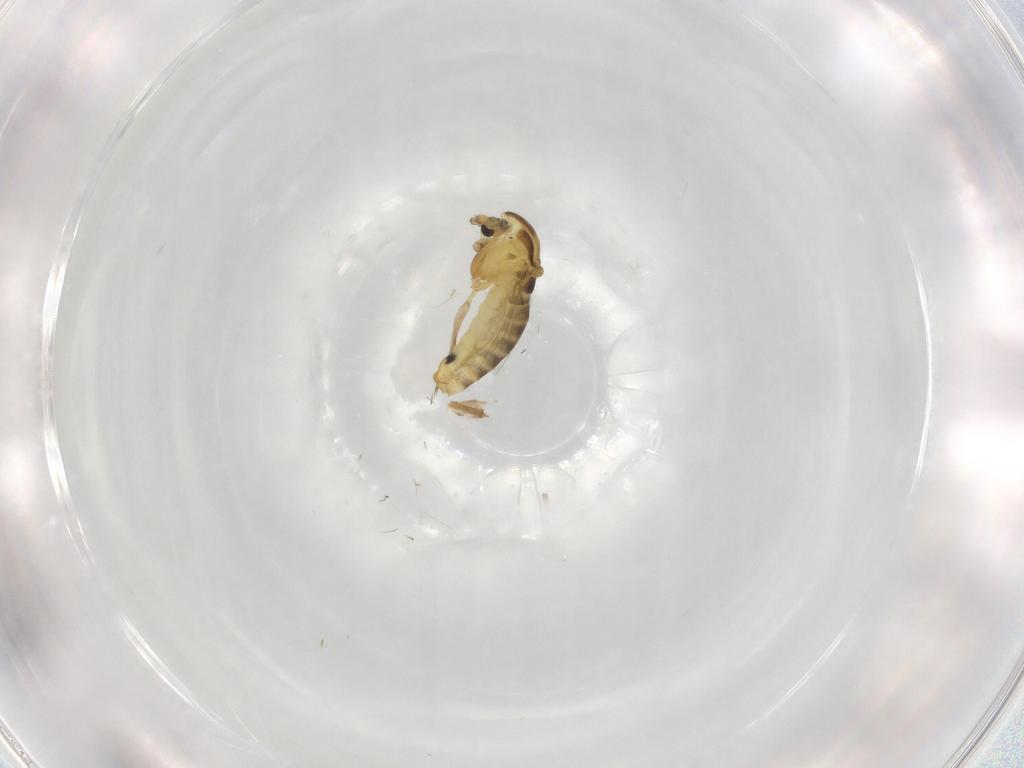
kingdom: Animalia
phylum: Arthropoda
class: Insecta
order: Diptera
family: Chironomidae
